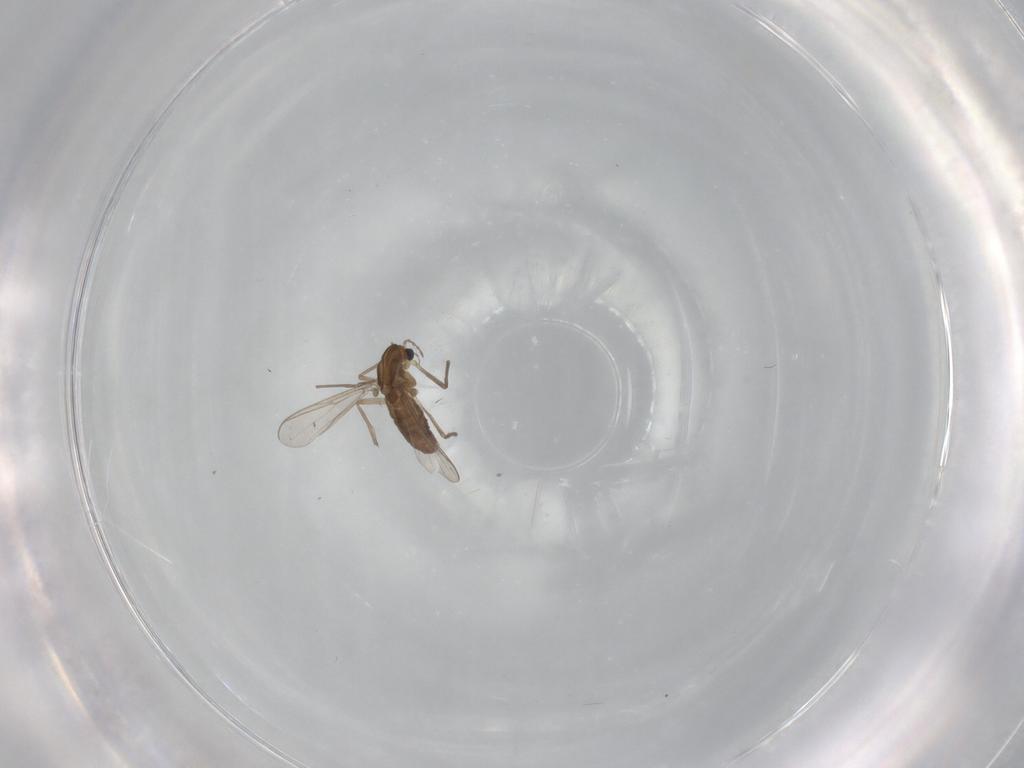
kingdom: Animalia
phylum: Arthropoda
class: Insecta
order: Diptera
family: Chironomidae
